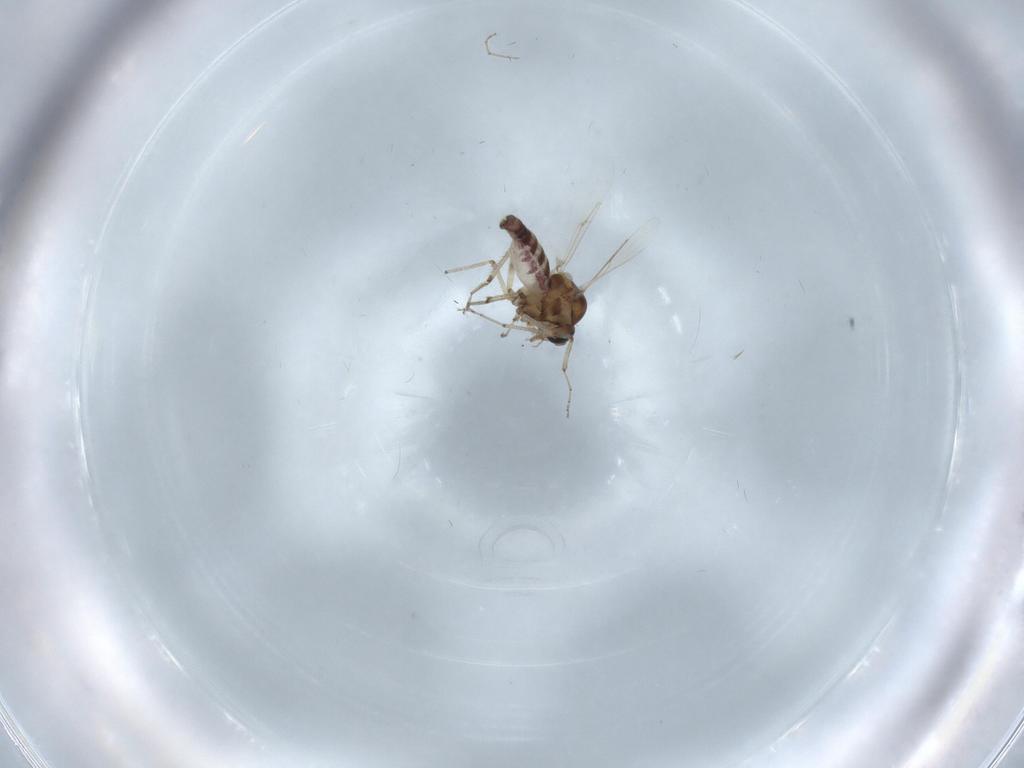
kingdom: Animalia
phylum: Arthropoda
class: Insecta
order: Diptera
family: Ceratopogonidae
